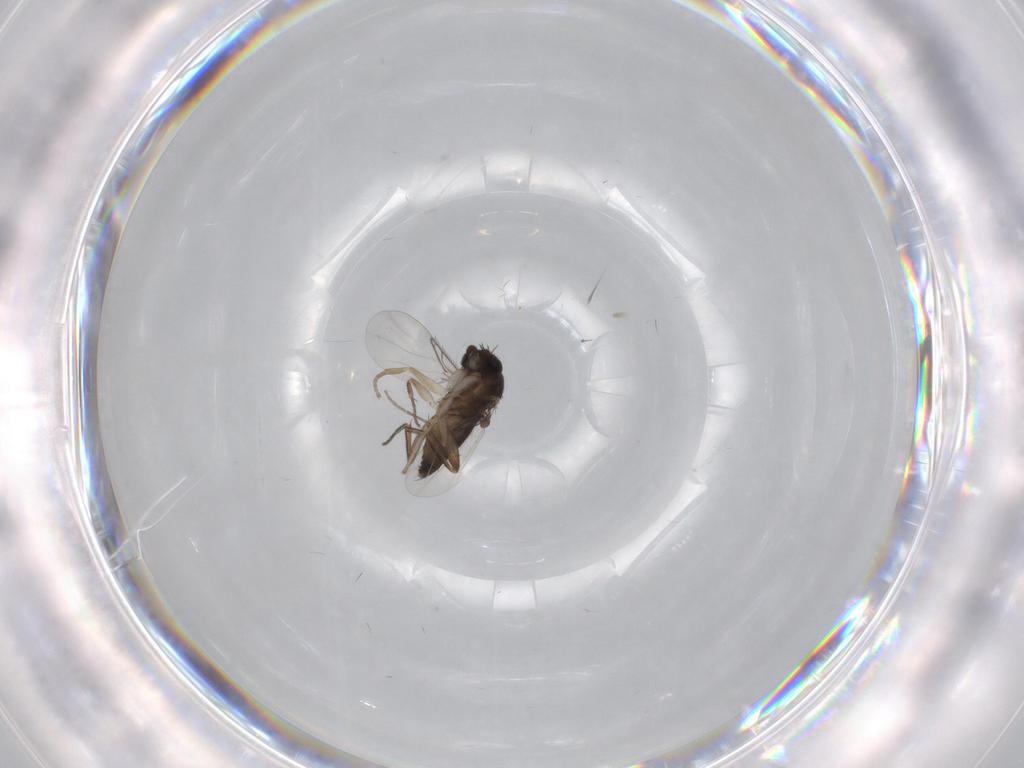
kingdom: Animalia
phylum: Arthropoda
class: Insecta
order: Diptera
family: Phoridae
